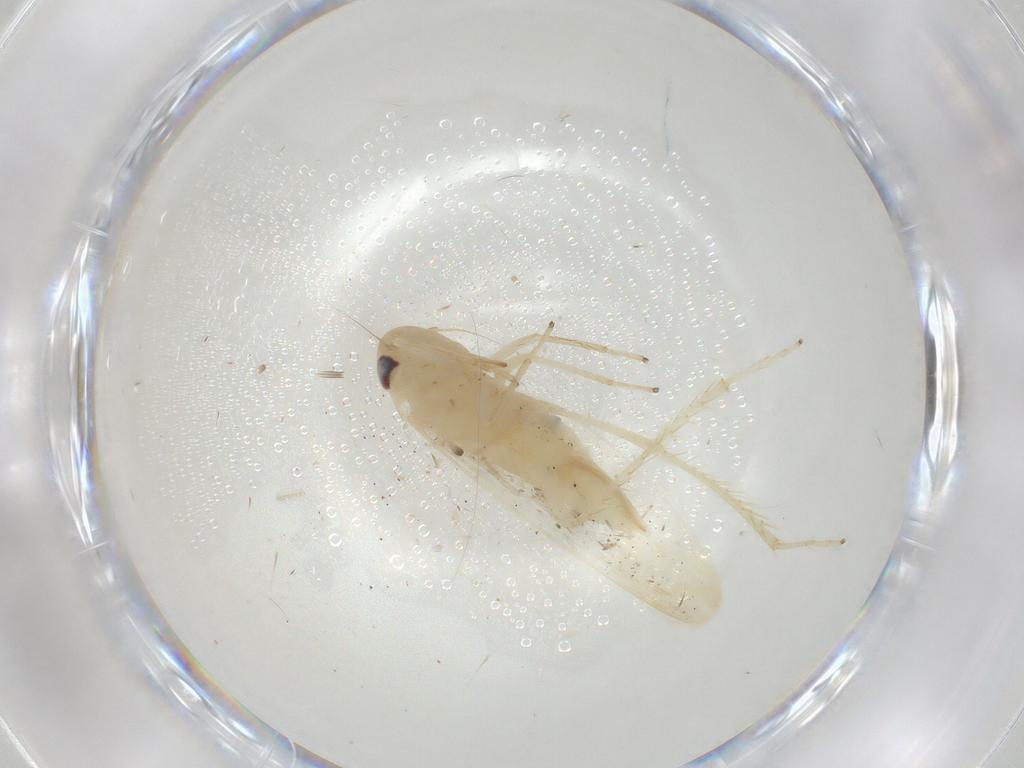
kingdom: Animalia
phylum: Arthropoda
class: Insecta
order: Hemiptera
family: Cicadellidae
